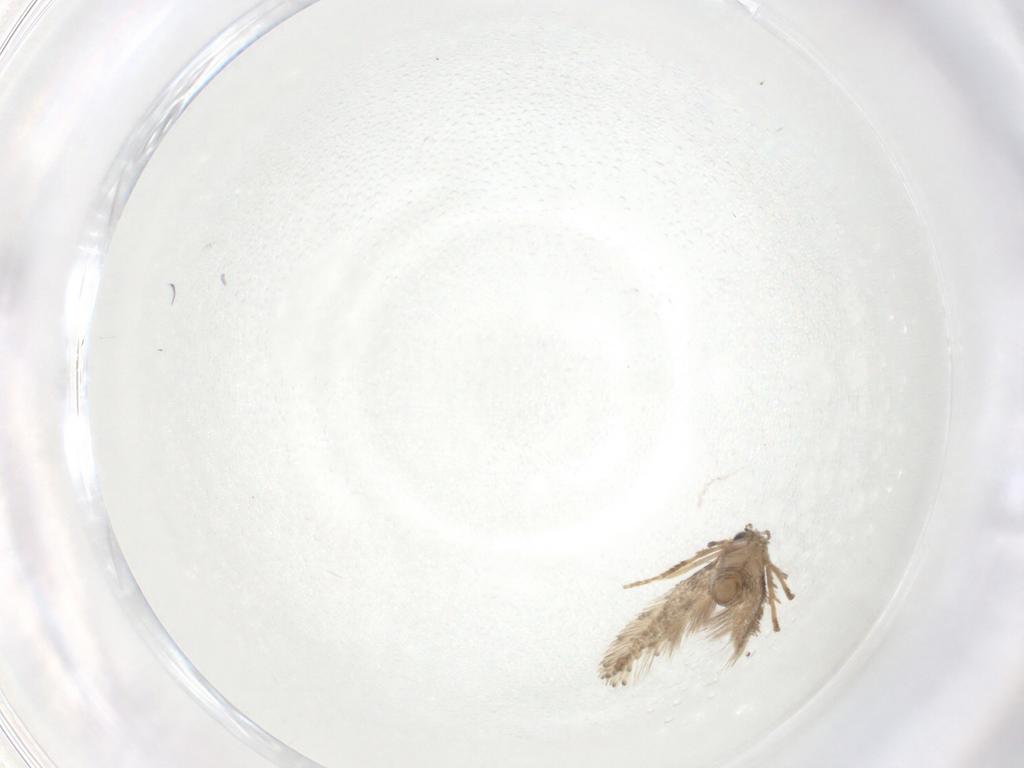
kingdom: Animalia
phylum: Arthropoda
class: Insecta
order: Lepidoptera
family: Nepticulidae
